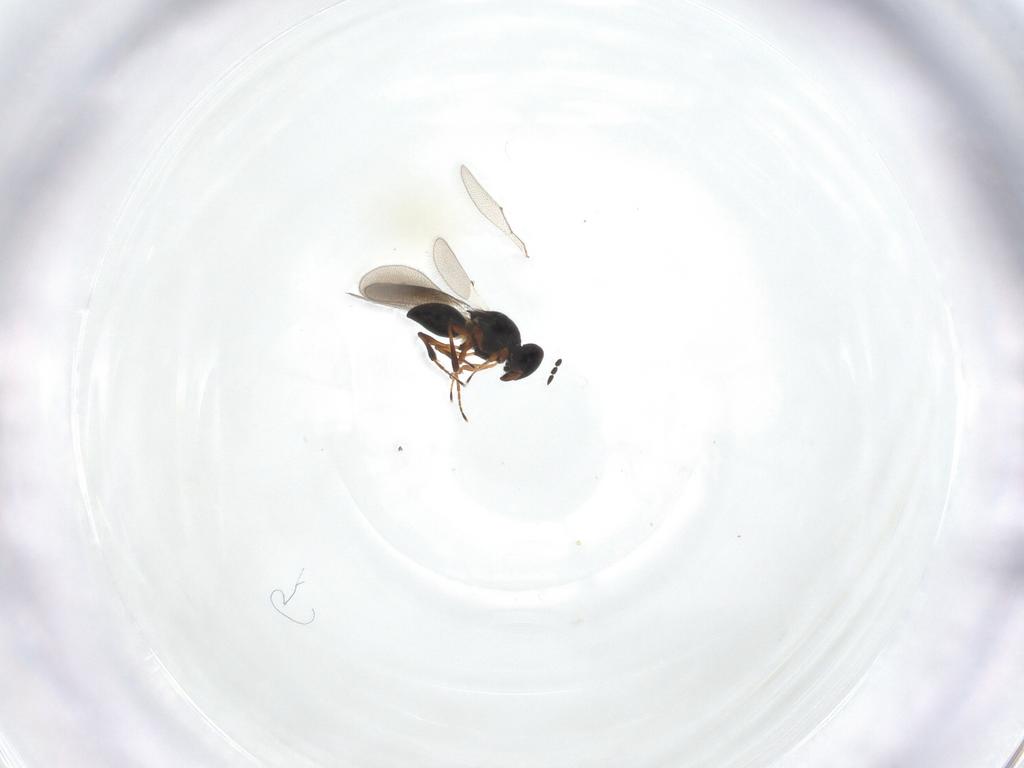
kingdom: Animalia
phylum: Arthropoda
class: Insecta
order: Hymenoptera
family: Platygastridae
